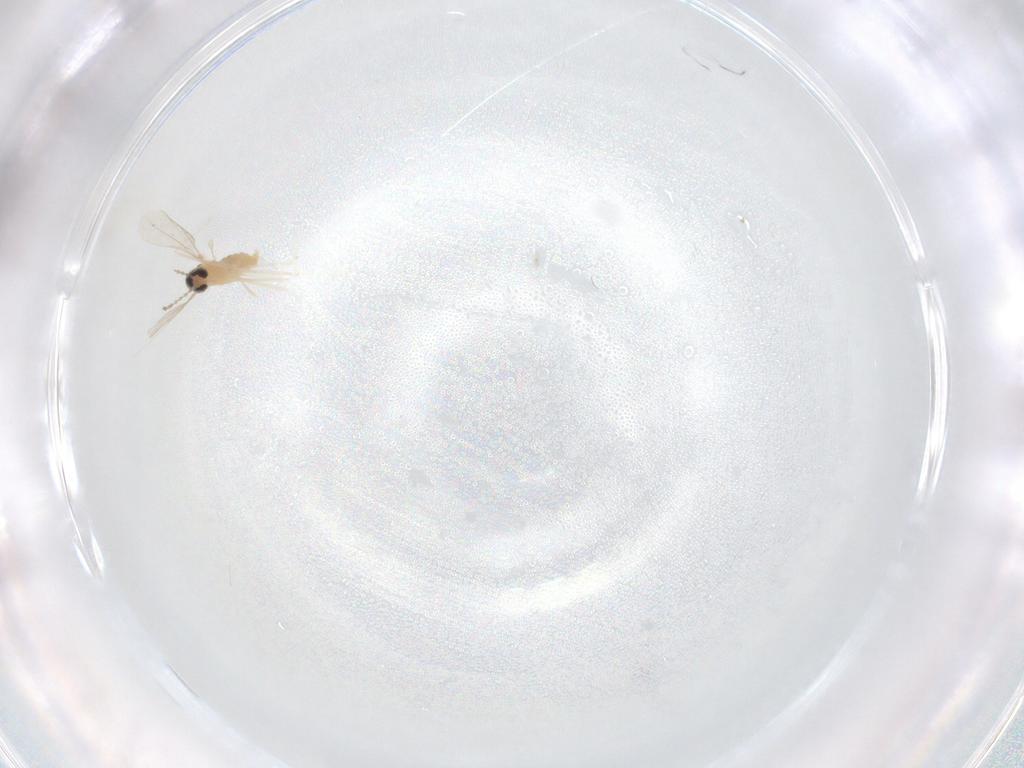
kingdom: Animalia
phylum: Arthropoda
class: Insecta
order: Diptera
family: Cecidomyiidae
